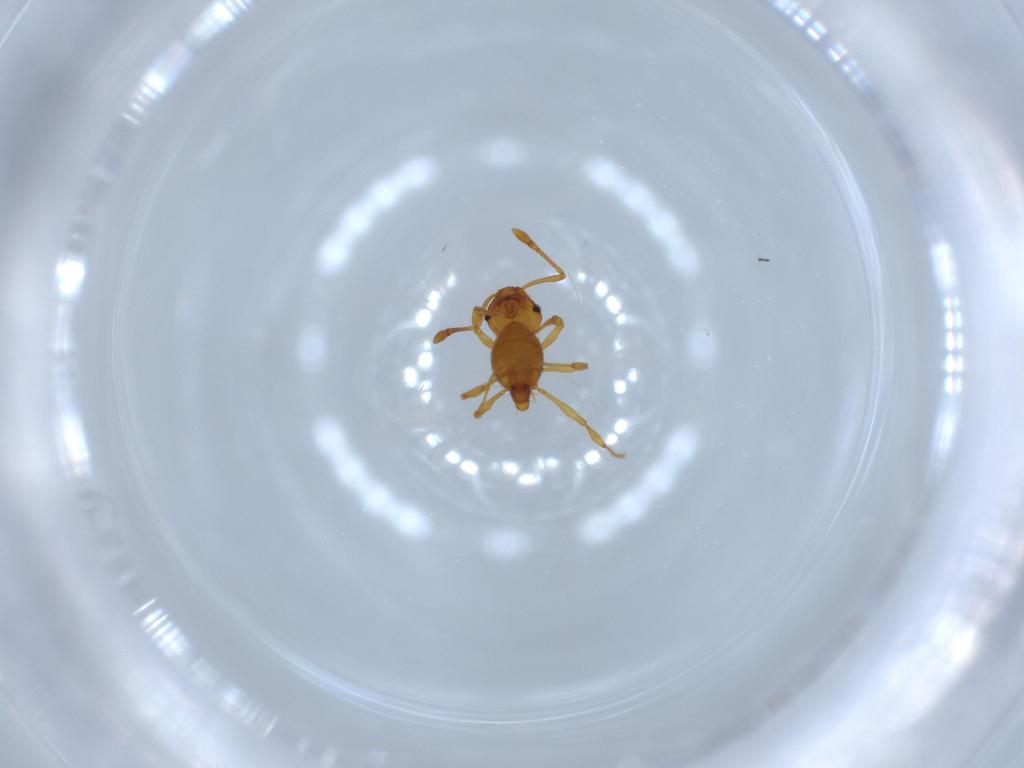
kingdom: Animalia
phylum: Arthropoda
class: Insecta
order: Hymenoptera
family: Formicidae
